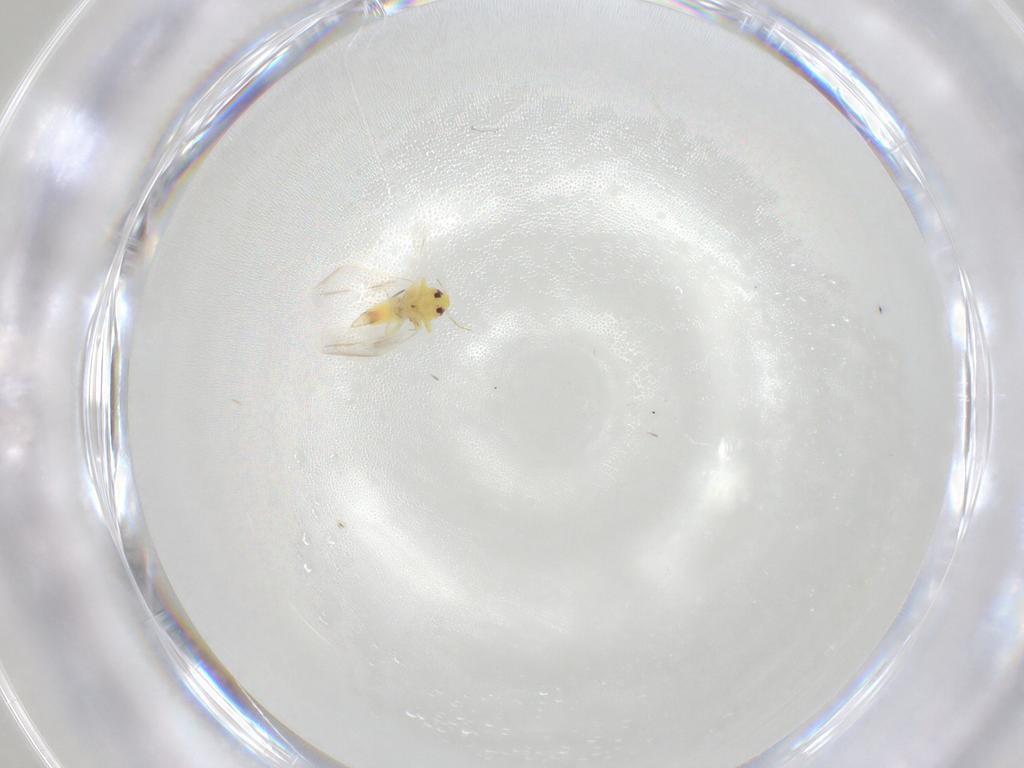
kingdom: Animalia
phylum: Arthropoda
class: Insecta
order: Hemiptera
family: Aleyrodidae
